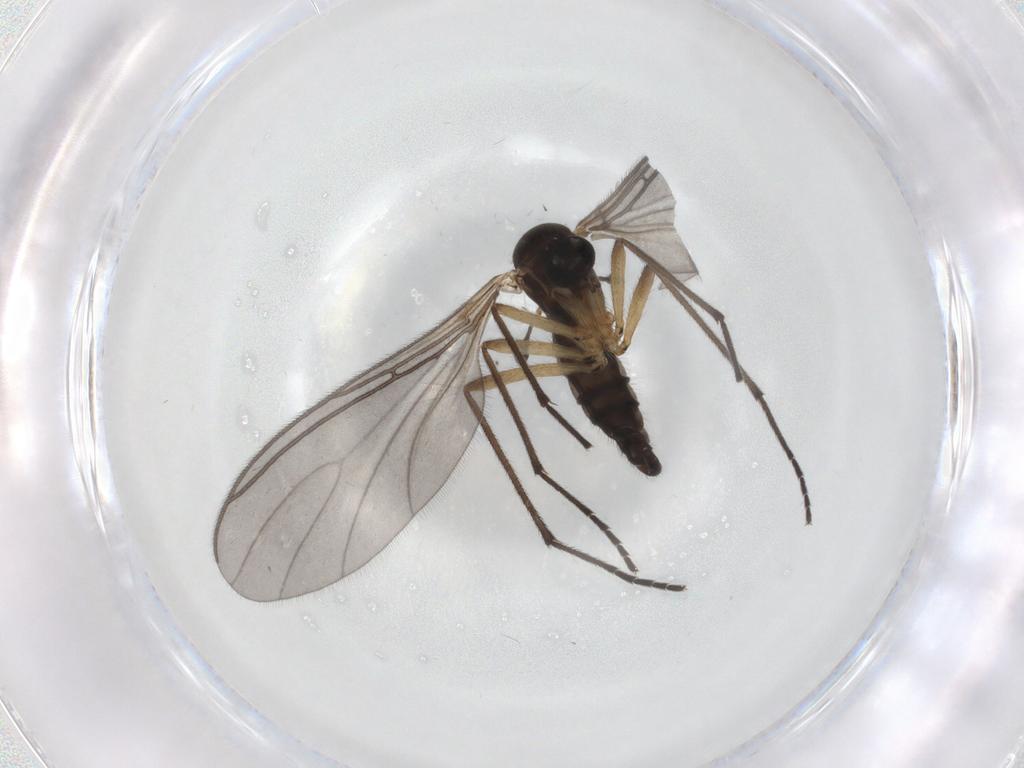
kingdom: Animalia
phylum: Arthropoda
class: Insecta
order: Diptera
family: Sciaridae
